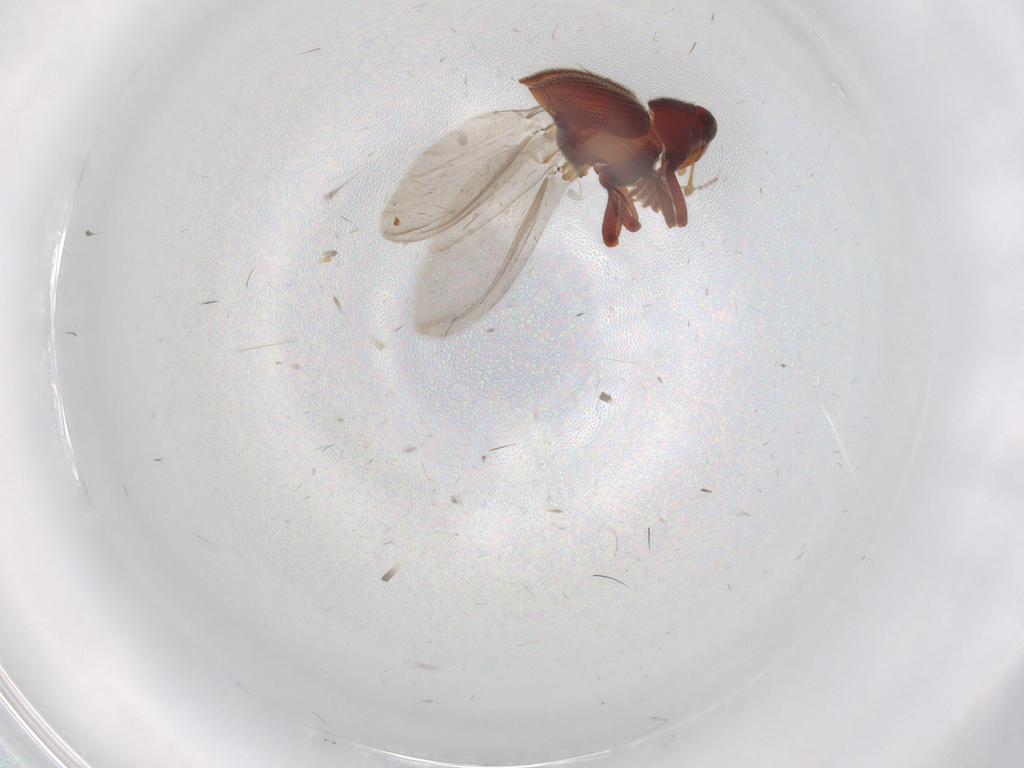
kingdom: Animalia
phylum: Arthropoda
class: Insecta
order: Coleoptera
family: Curculionidae
